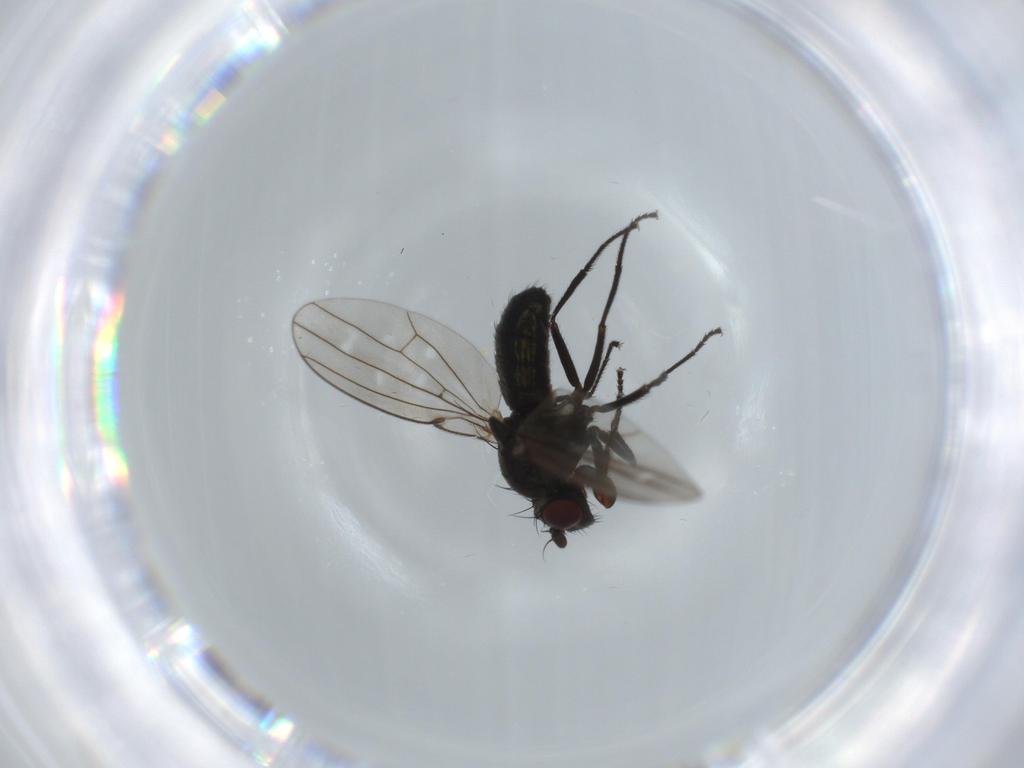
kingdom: Animalia
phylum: Arthropoda
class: Insecta
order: Diptera
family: Ephydridae
